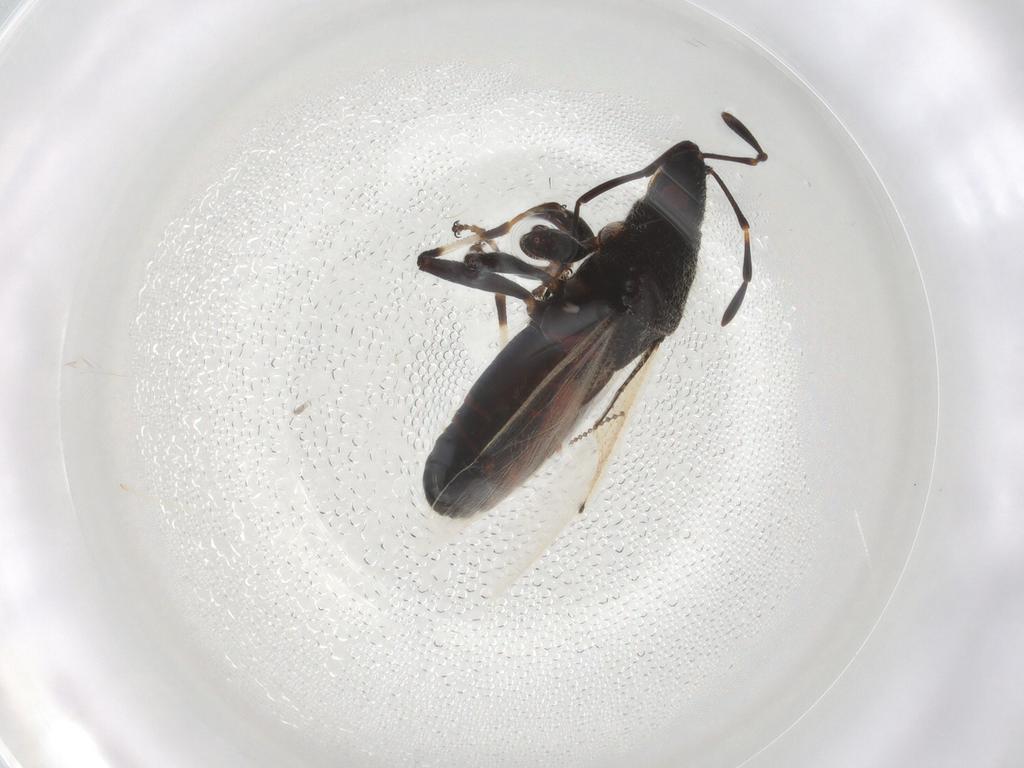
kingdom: Animalia
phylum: Arthropoda
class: Insecta
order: Hemiptera
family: Oxycarenidae
